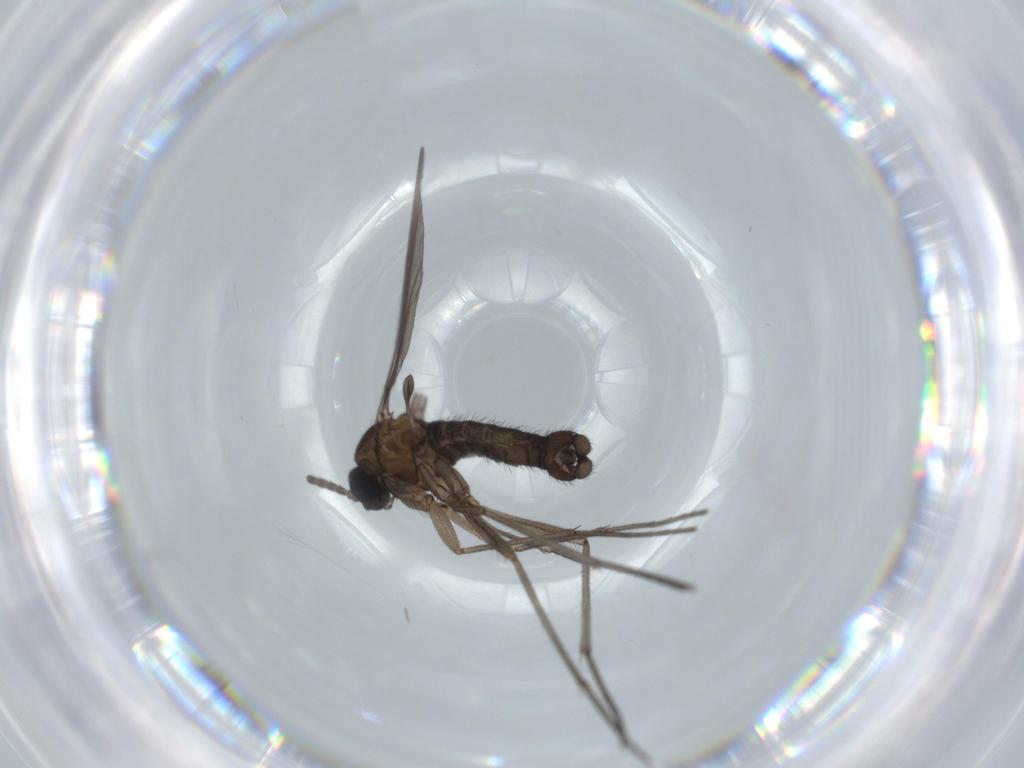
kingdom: Animalia
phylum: Arthropoda
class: Insecta
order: Diptera
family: Sciaridae
